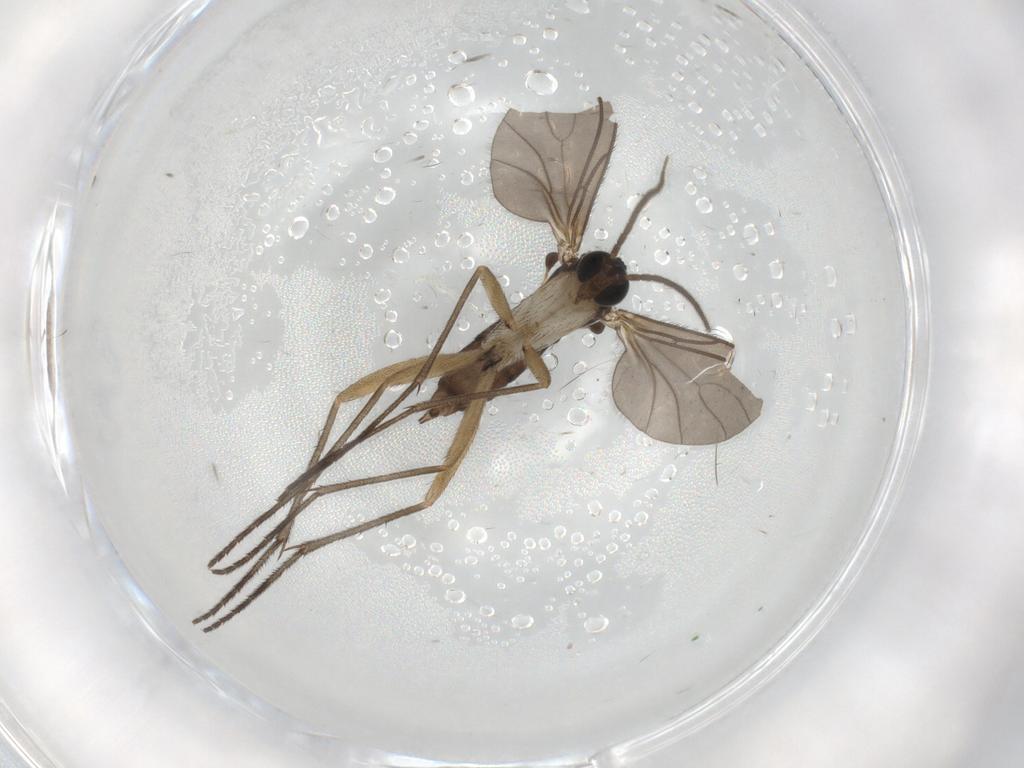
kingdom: Animalia
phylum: Arthropoda
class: Insecta
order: Diptera
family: Sciaridae
